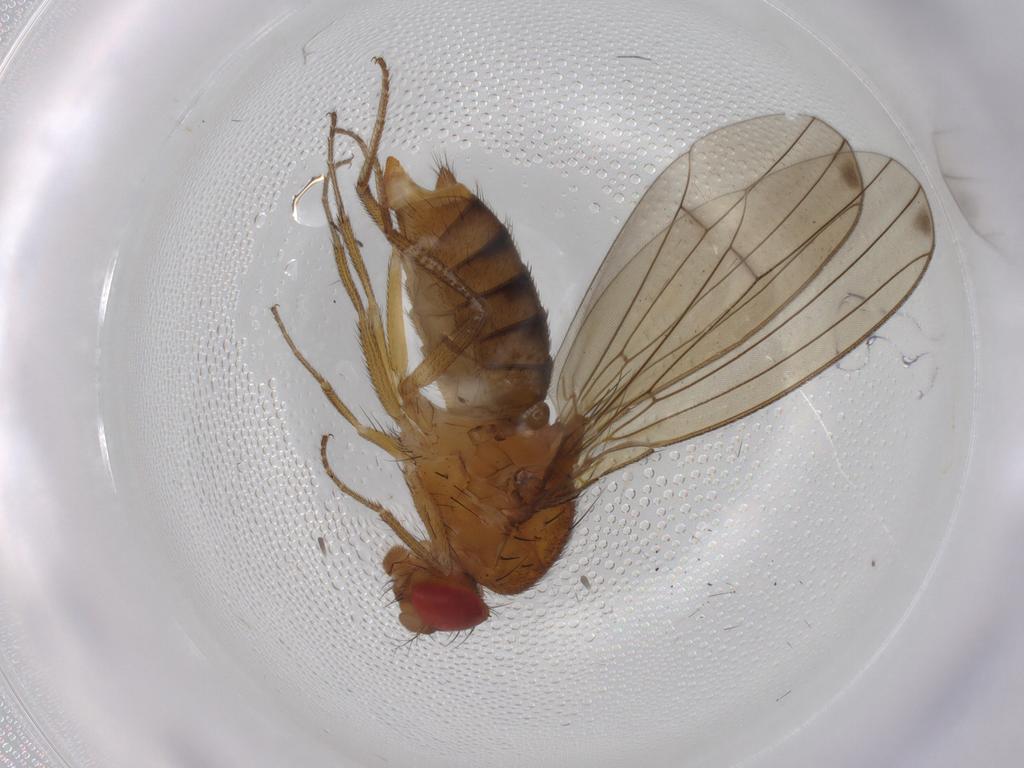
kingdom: Animalia
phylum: Arthropoda
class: Insecta
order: Diptera
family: Drosophilidae
